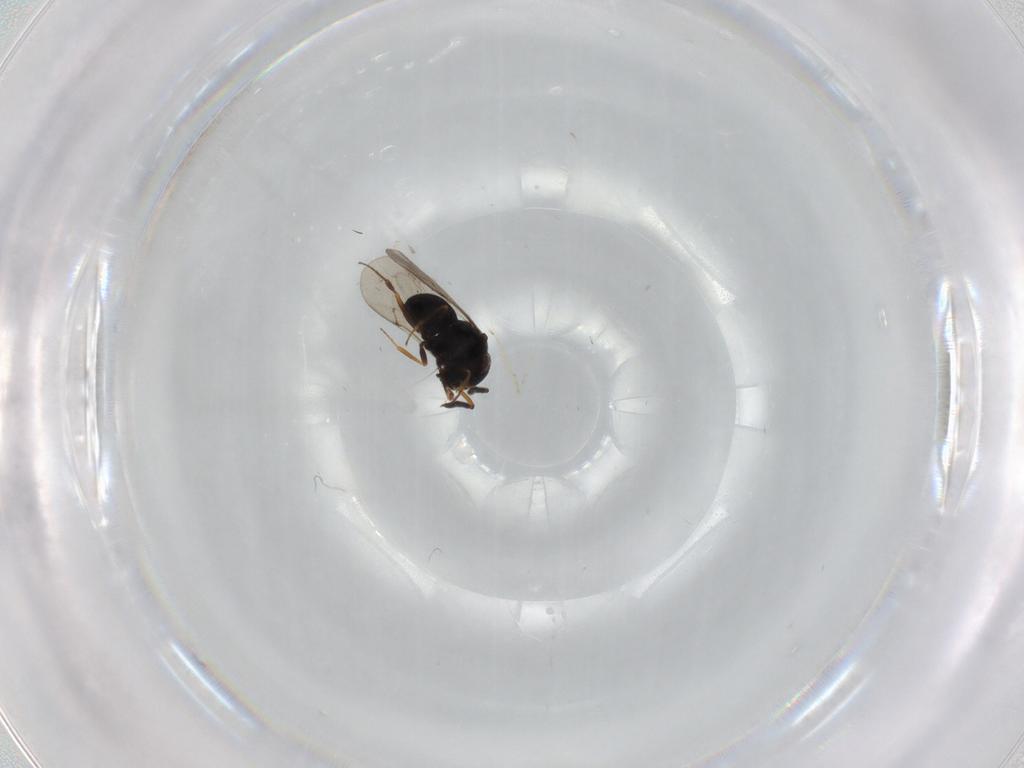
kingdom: Animalia
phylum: Arthropoda
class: Insecta
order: Hymenoptera
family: Scelionidae
